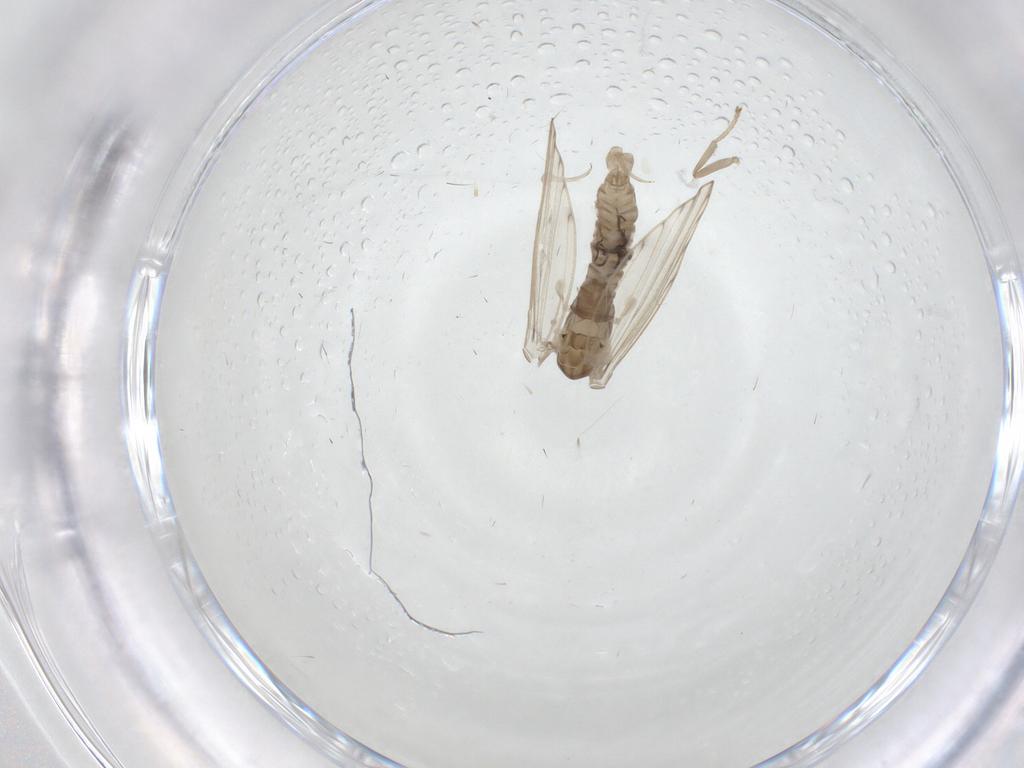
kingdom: Animalia
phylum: Arthropoda
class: Insecta
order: Diptera
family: Psychodidae
